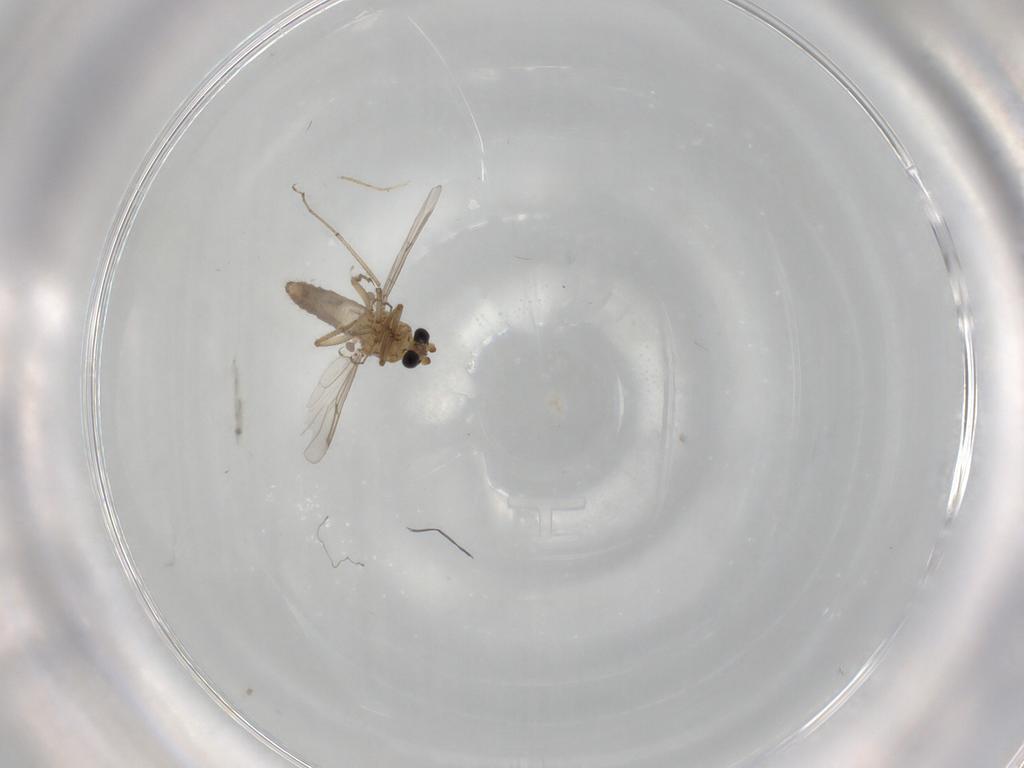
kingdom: Animalia
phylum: Arthropoda
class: Insecta
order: Diptera
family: Ceratopogonidae
